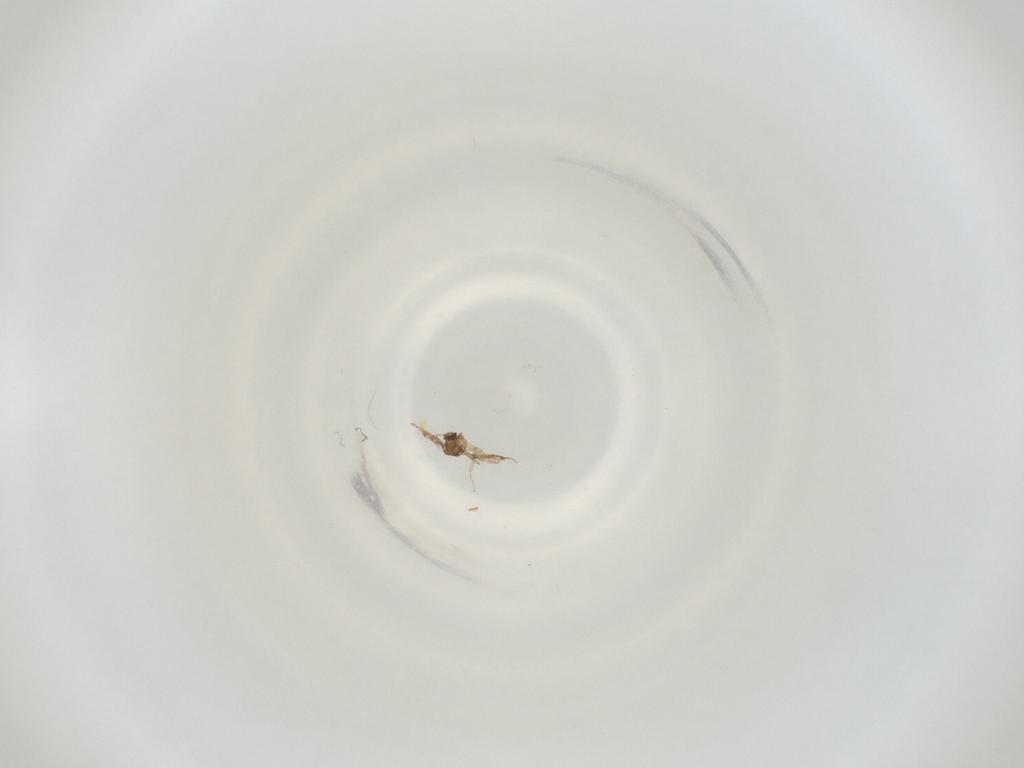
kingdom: Animalia
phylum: Arthropoda
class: Insecta
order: Diptera
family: Cecidomyiidae
